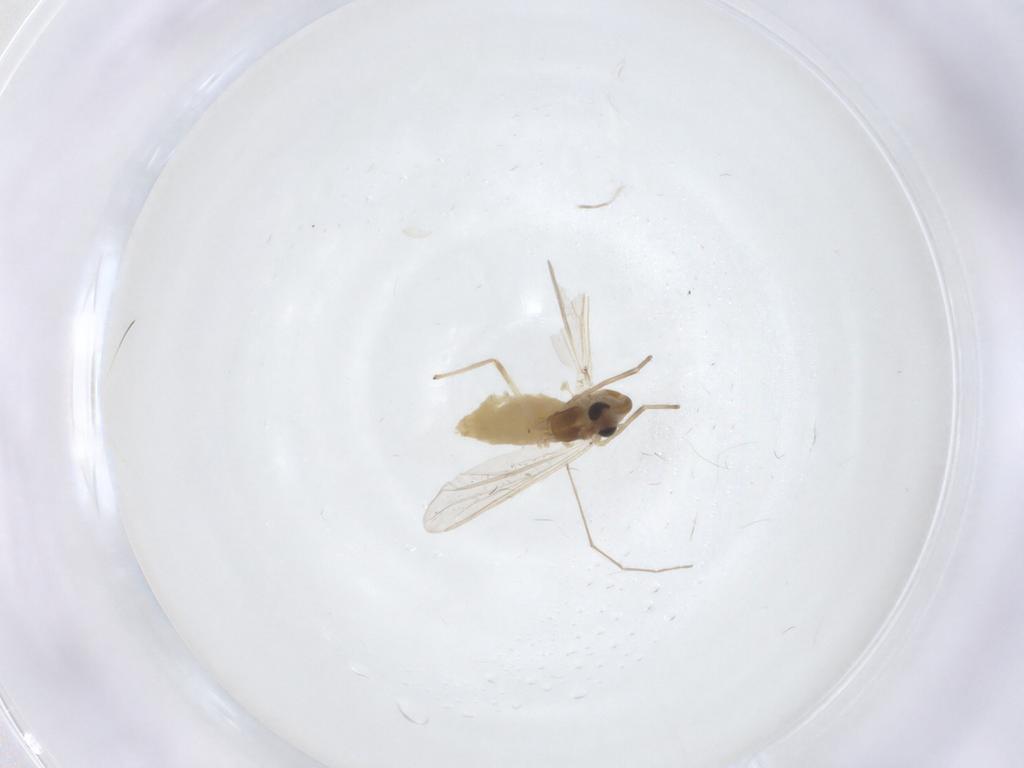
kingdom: Animalia
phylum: Arthropoda
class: Insecta
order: Diptera
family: Chironomidae
